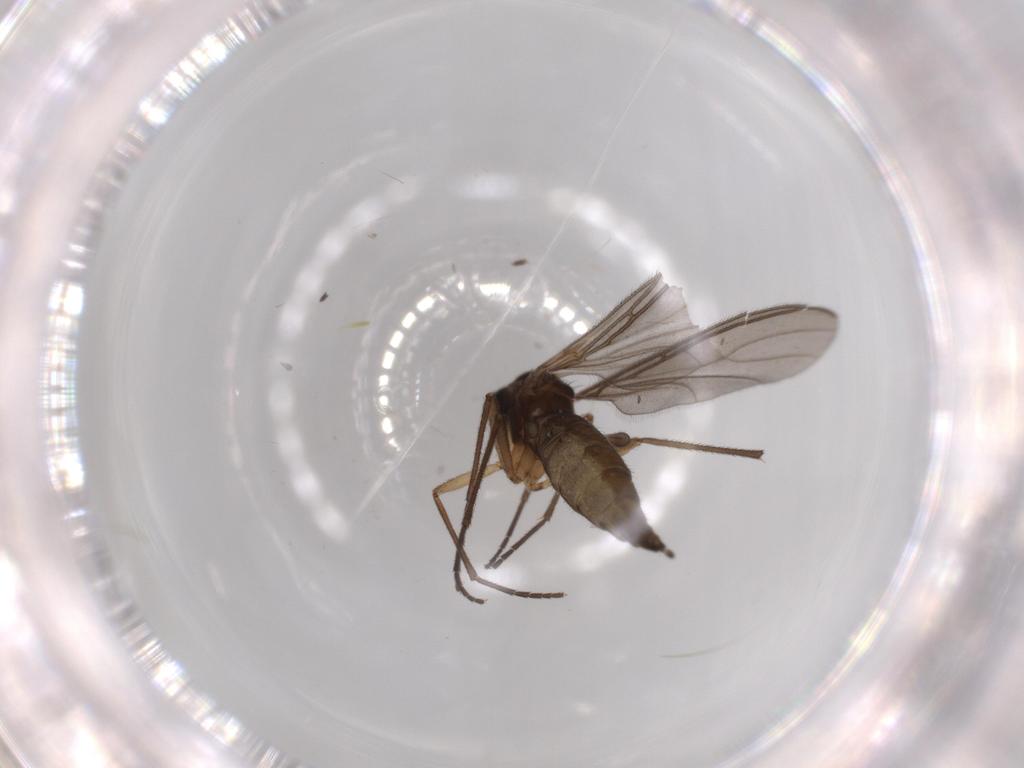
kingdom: Animalia
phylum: Arthropoda
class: Insecta
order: Diptera
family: Sciaridae
